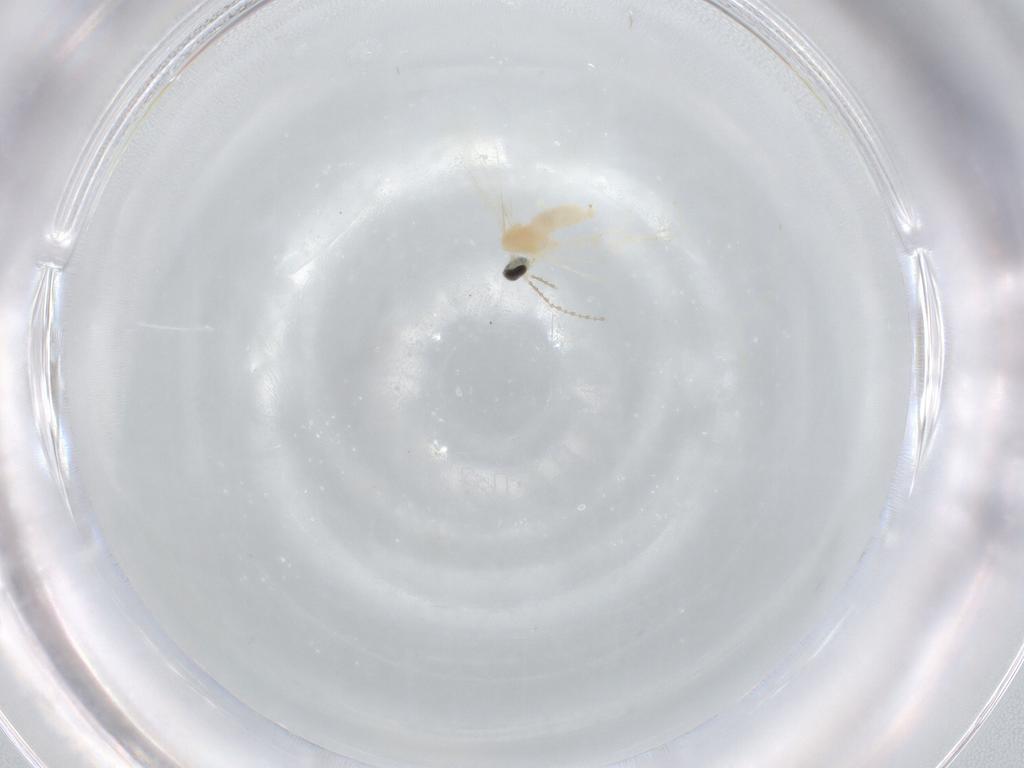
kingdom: Animalia
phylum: Arthropoda
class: Insecta
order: Diptera
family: Cecidomyiidae
